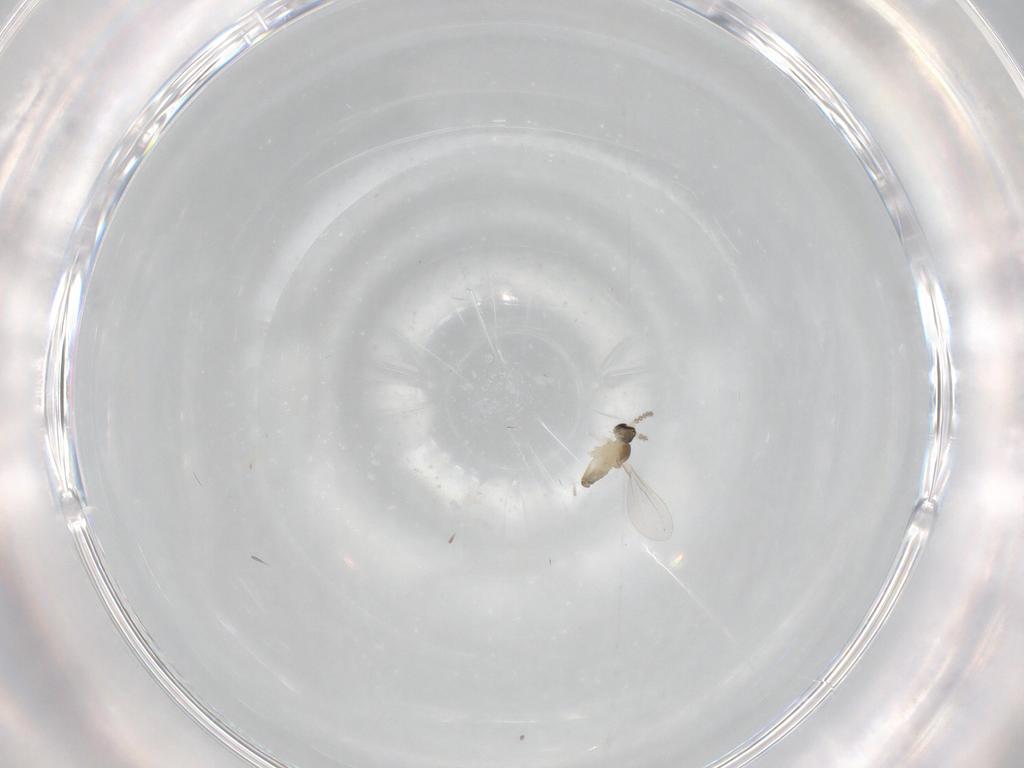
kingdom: Animalia
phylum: Arthropoda
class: Insecta
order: Diptera
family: Cecidomyiidae
